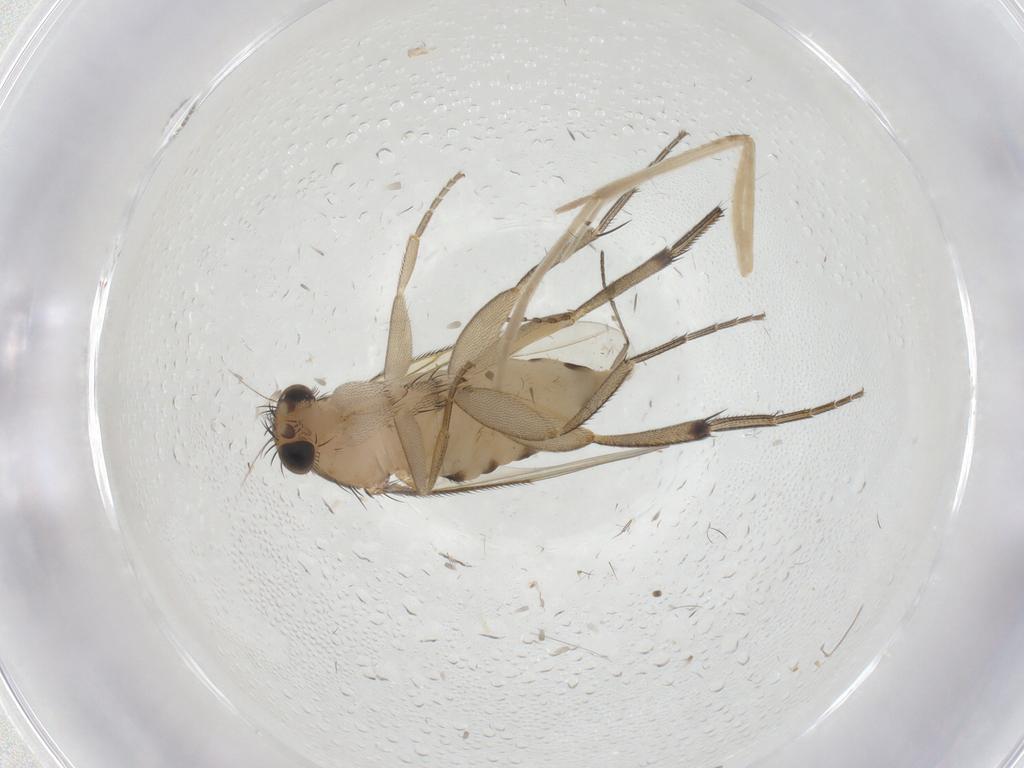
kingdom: Animalia
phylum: Arthropoda
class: Insecta
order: Diptera
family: Phoridae
